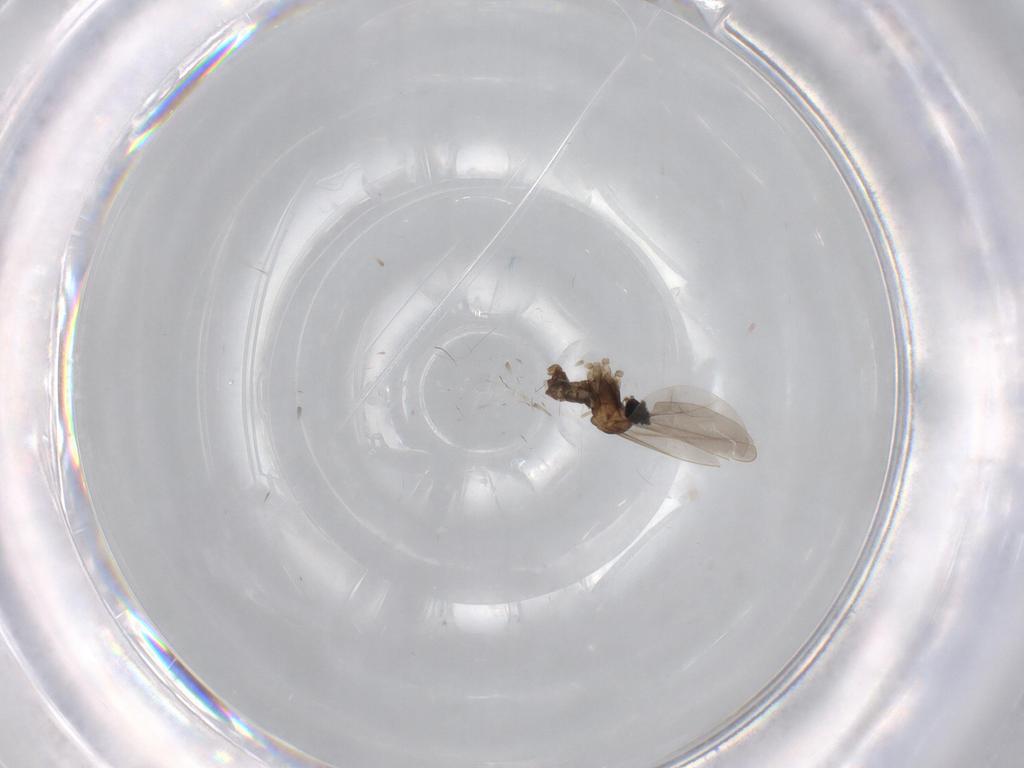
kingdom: Animalia
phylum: Arthropoda
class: Insecta
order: Diptera
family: Cecidomyiidae
